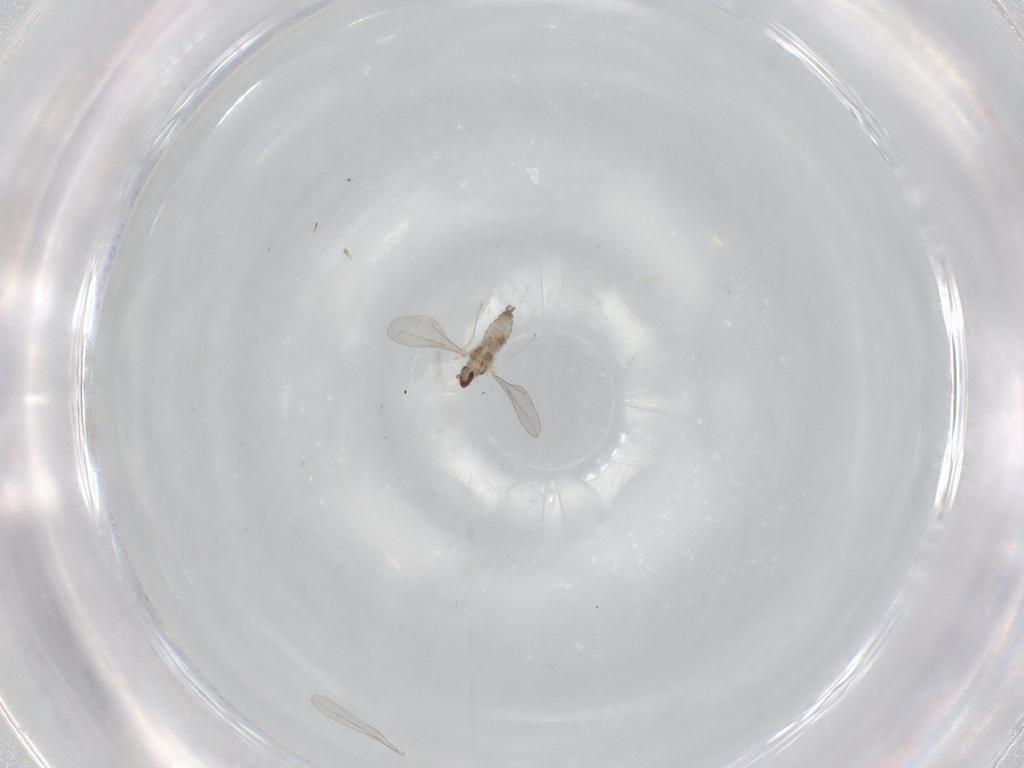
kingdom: Animalia
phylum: Arthropoda
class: Insecta
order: Diptera
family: Cecidomyiidae
